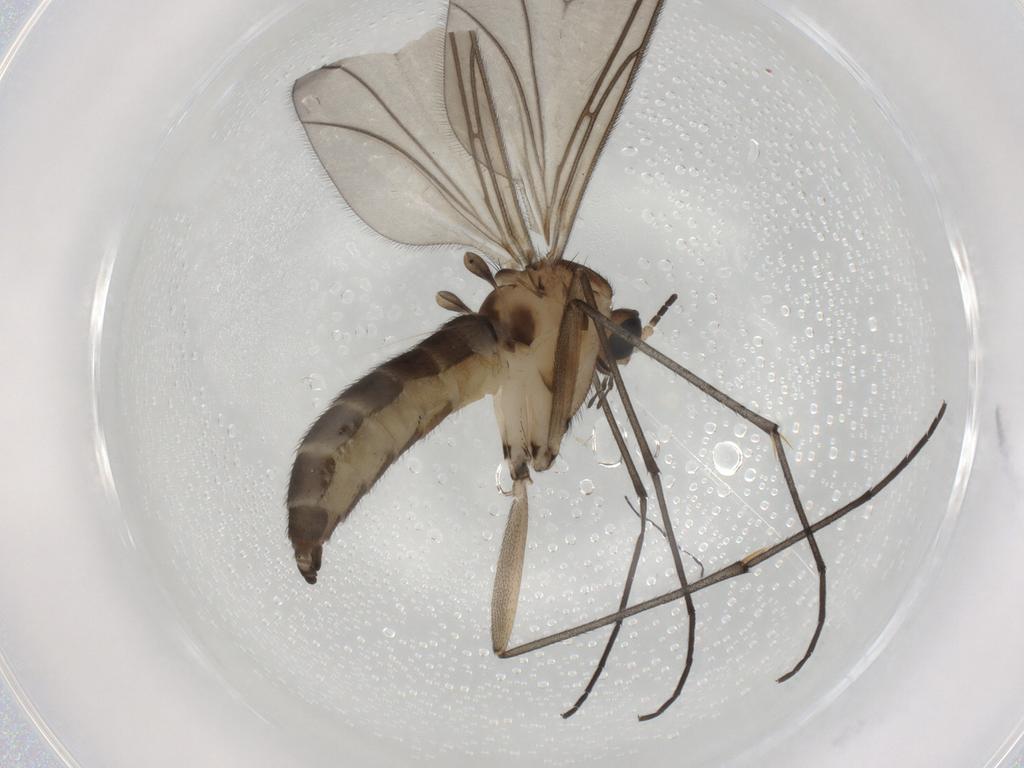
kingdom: Animalia
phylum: Arthropoda
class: Insecta
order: Diptera
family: Sciaridae
